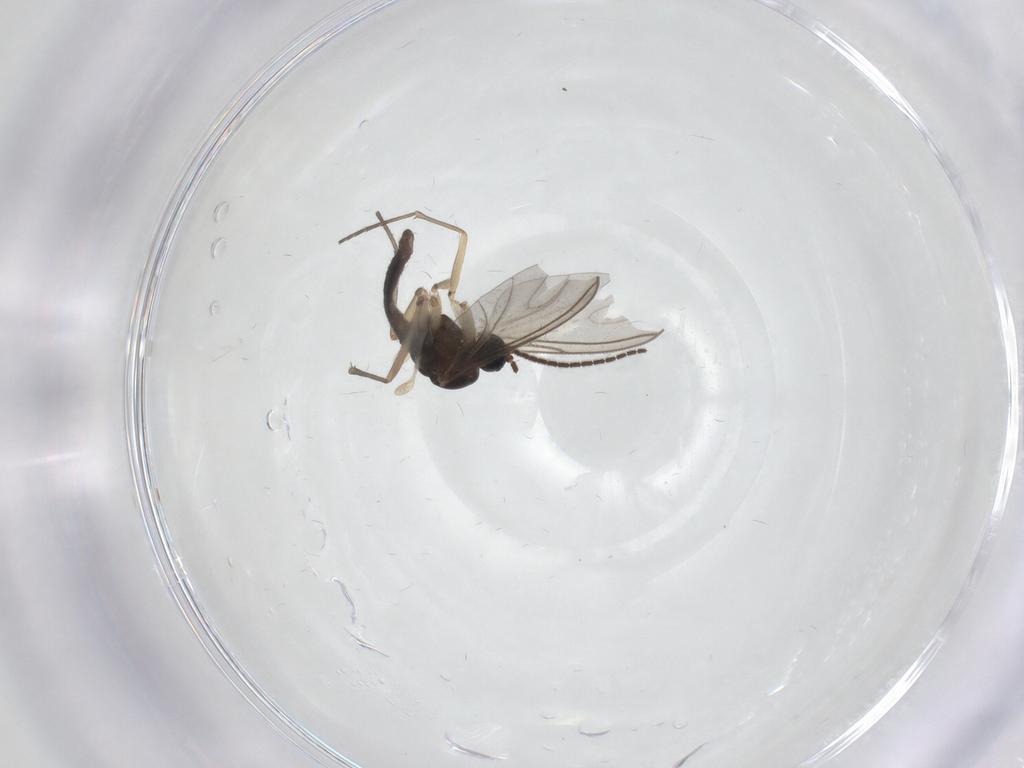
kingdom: Animalia
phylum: Arthropoda
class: Insecta
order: Diptera
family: Sciaridae
